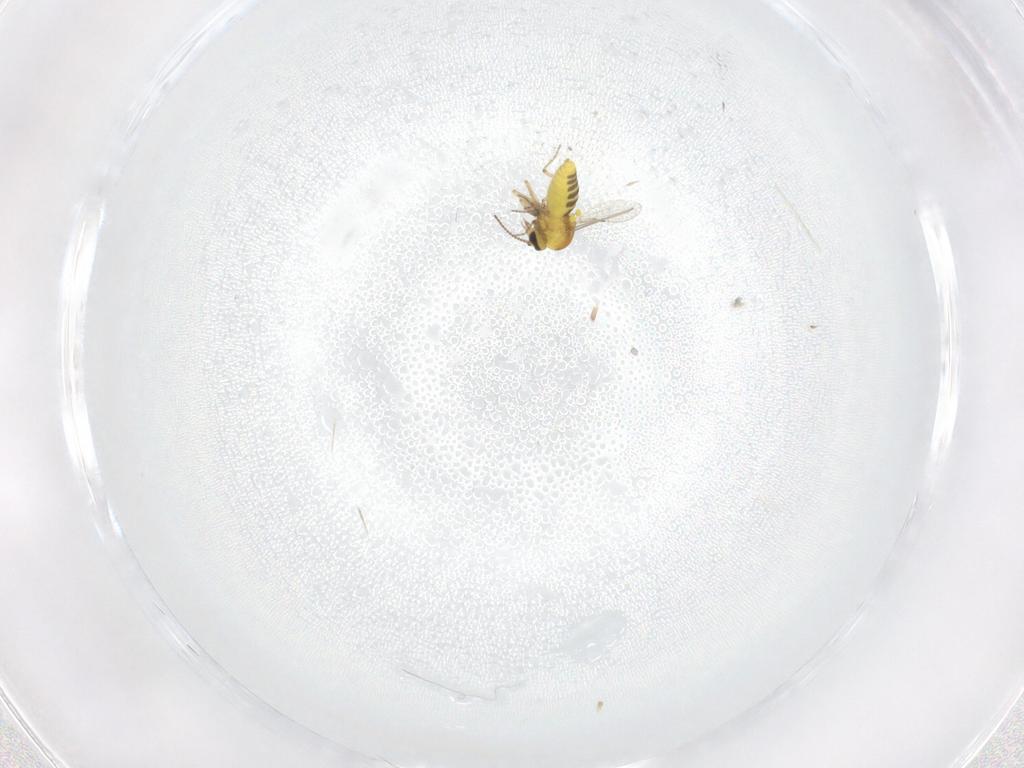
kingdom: Animalia
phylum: Arthropoda
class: Insecta
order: Diptera
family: Ceratopogonidae
